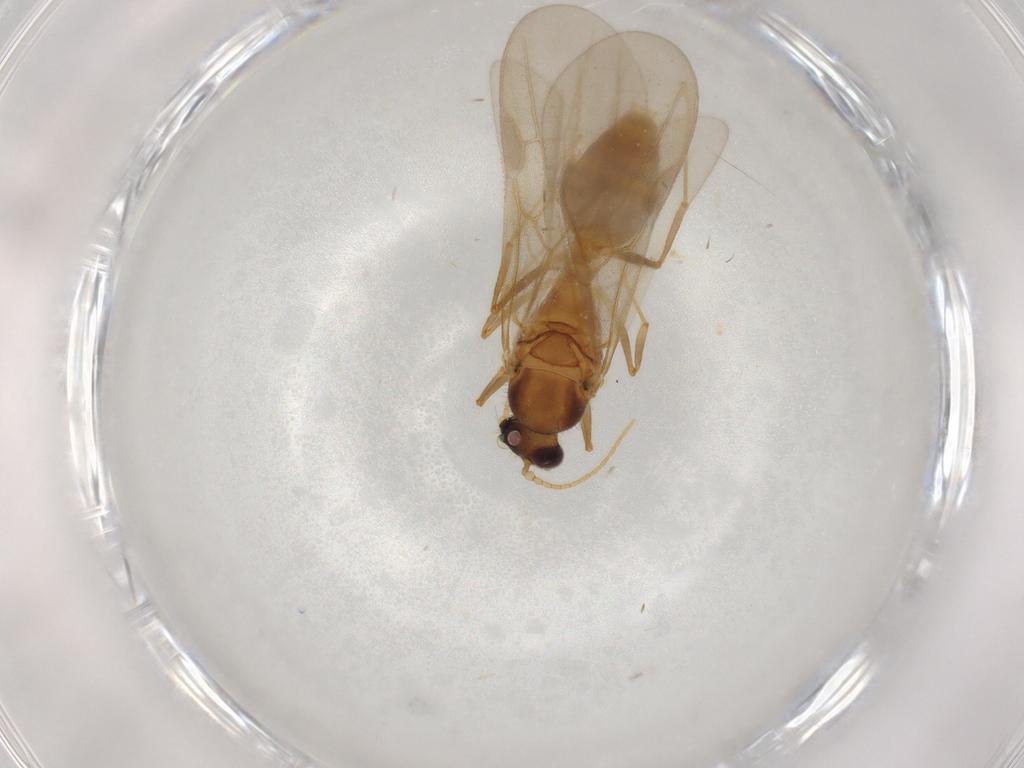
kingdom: Animalia
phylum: Arthropoda
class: Insecta
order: Hymenoptera
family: Formicidae
